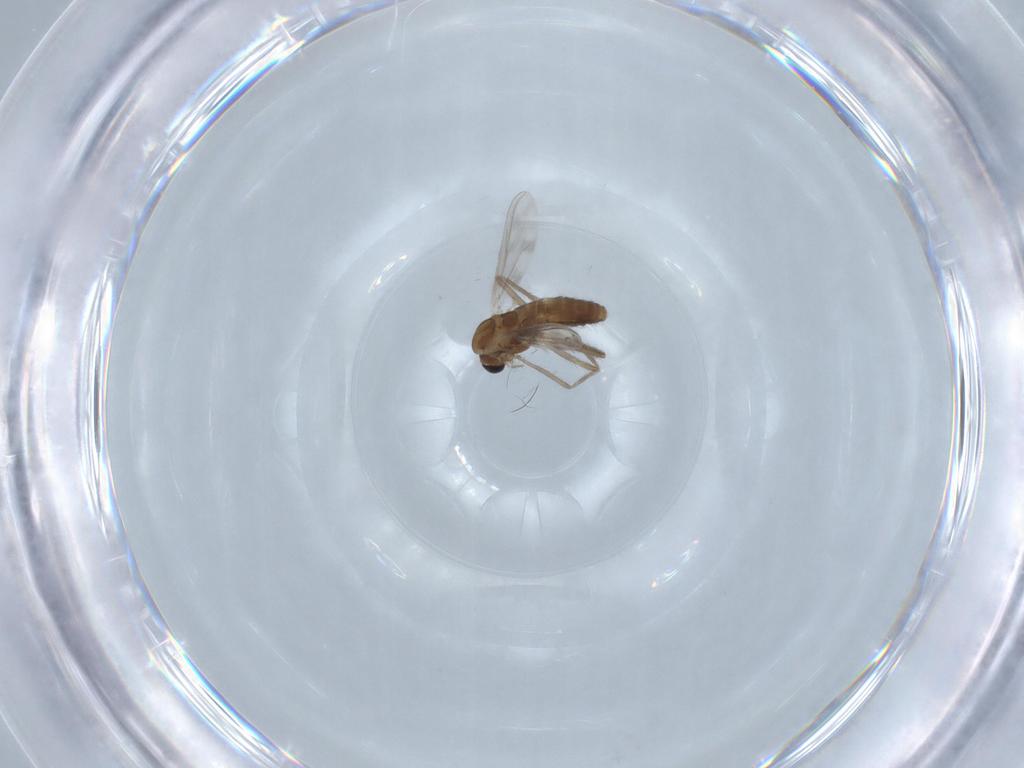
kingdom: Animalia
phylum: Arthropoda
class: Insecta
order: Diptera
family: Chironomidae
